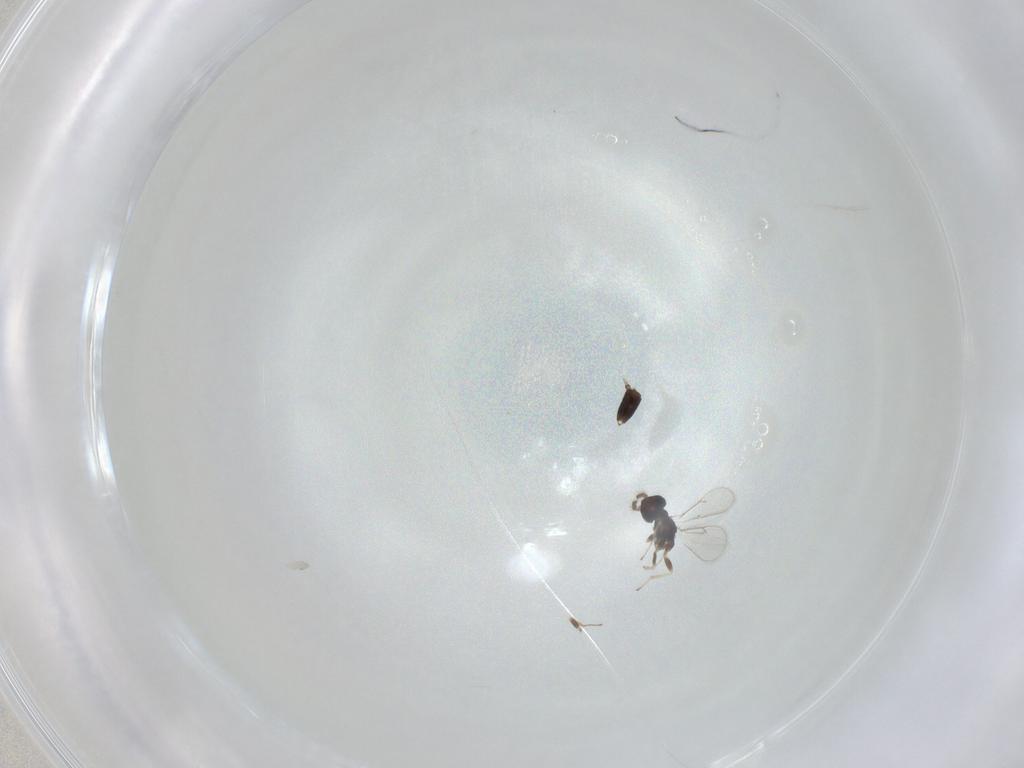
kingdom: Animalia
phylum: Arthropoda
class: Insecta
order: Hymenoptera
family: Eulophidae
